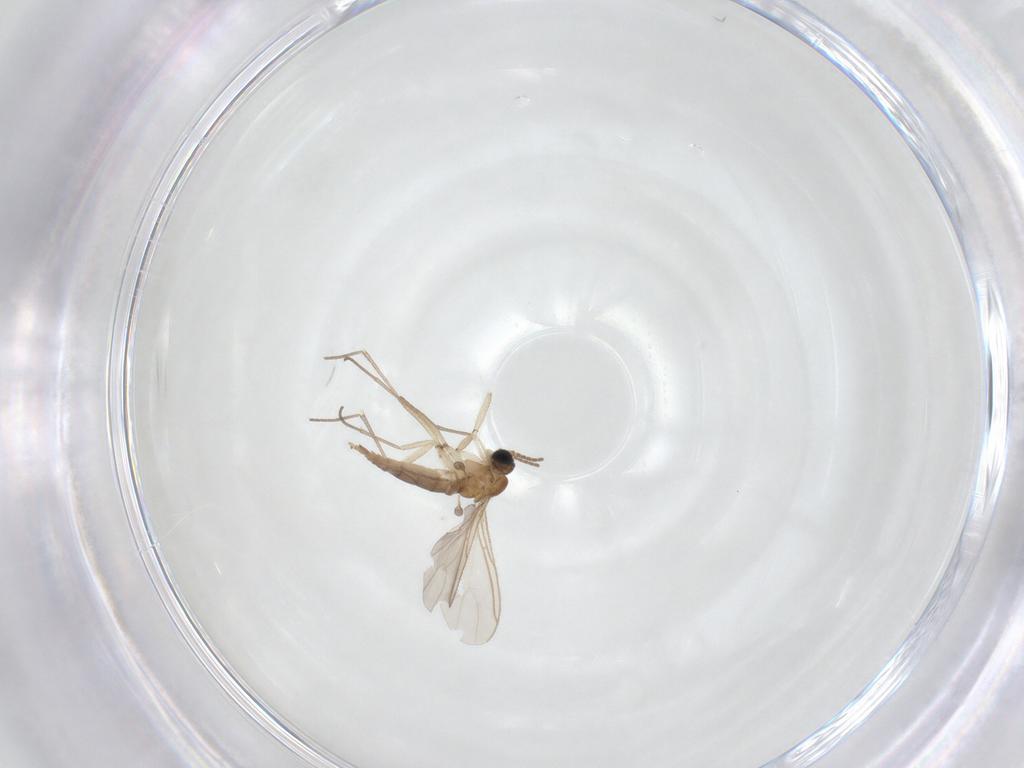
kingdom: Animalia
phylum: Arthropoda
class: Insecta
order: Diptera
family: Sciaridae
